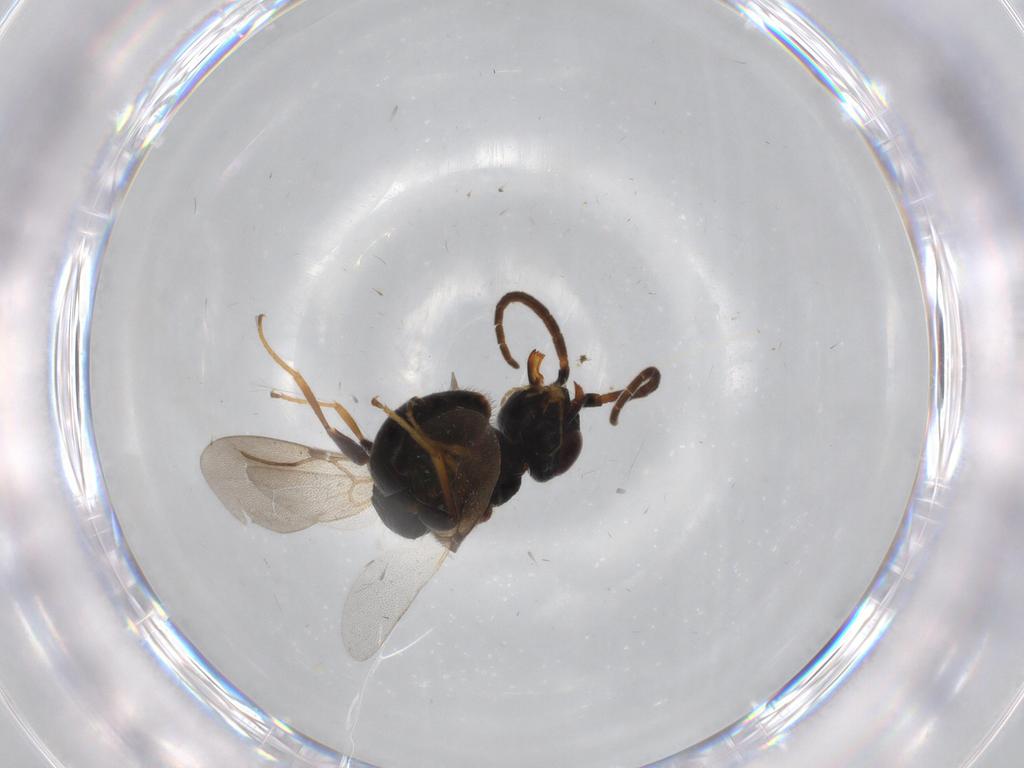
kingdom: Animalia
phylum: Arthropoda
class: Insecta
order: Hymenoptera
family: Bethylidae
